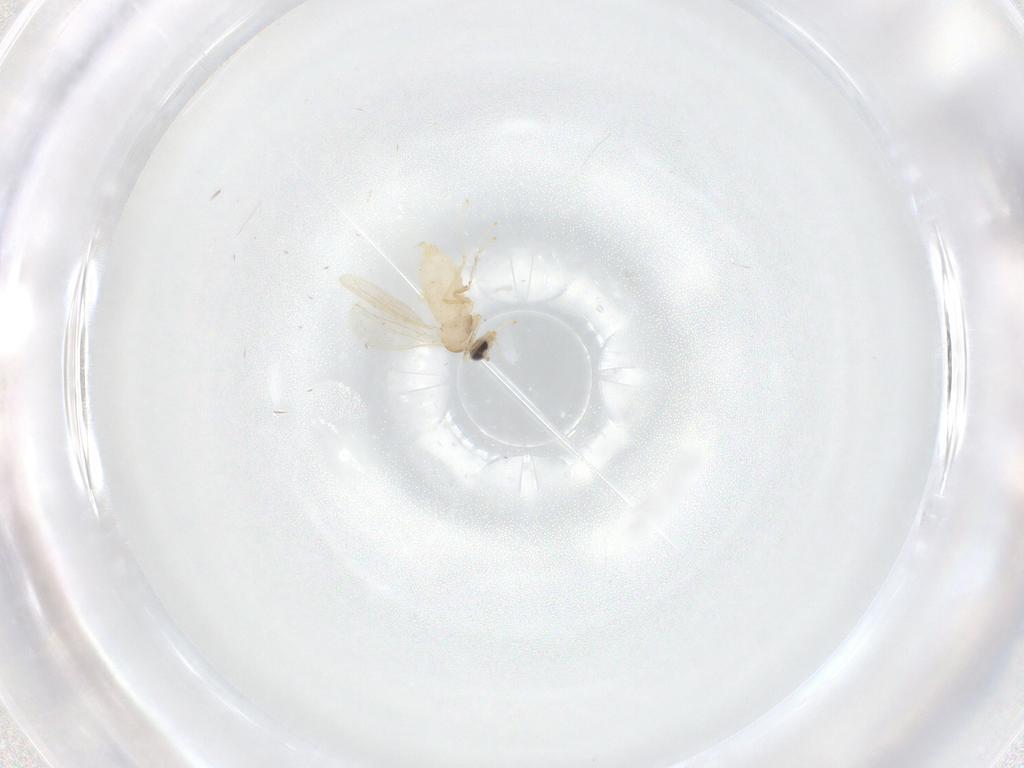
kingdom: Animalia
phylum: Arthropoda
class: Insecta
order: Diptera
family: Cecidomyiidae
